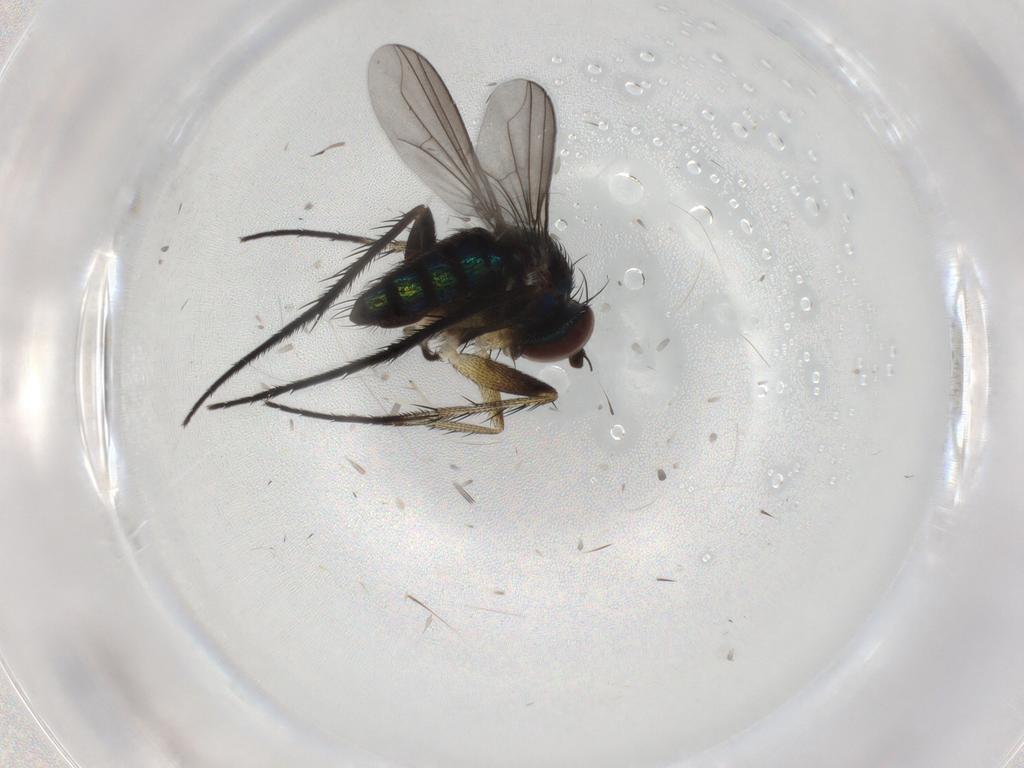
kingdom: Animalia
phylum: Arthropoda
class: Insecta
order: Diptera
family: Dolichopodidae
